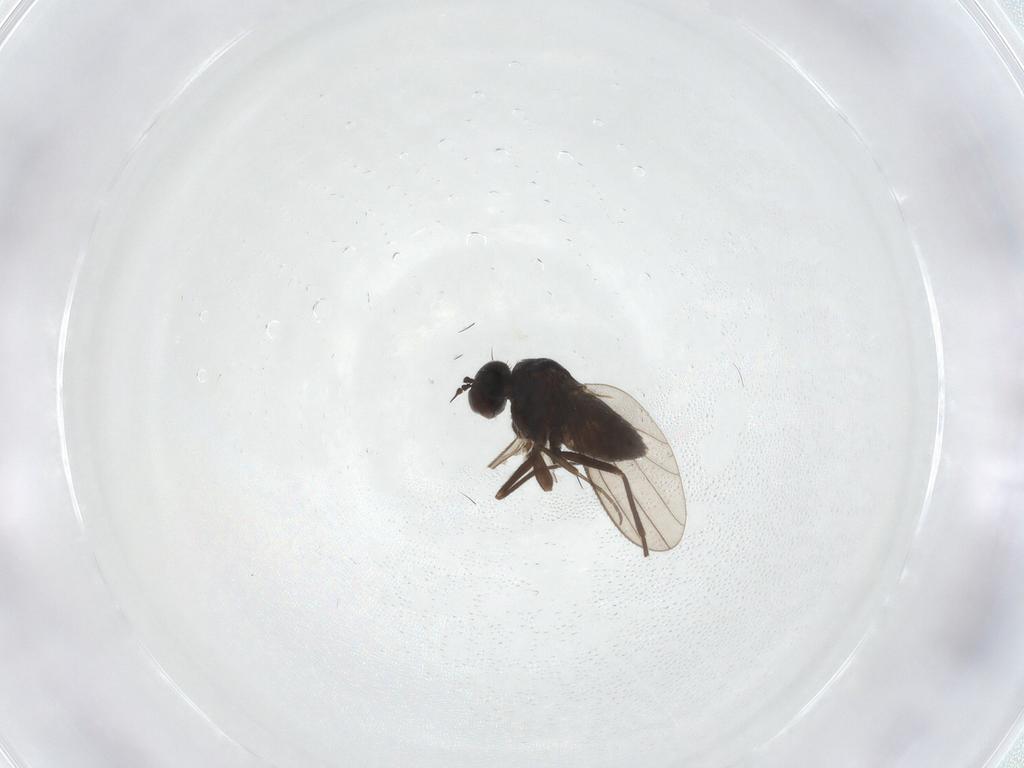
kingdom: Animalia
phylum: Arthropoda
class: Insecta
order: Diptera
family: Dolichopodidae
